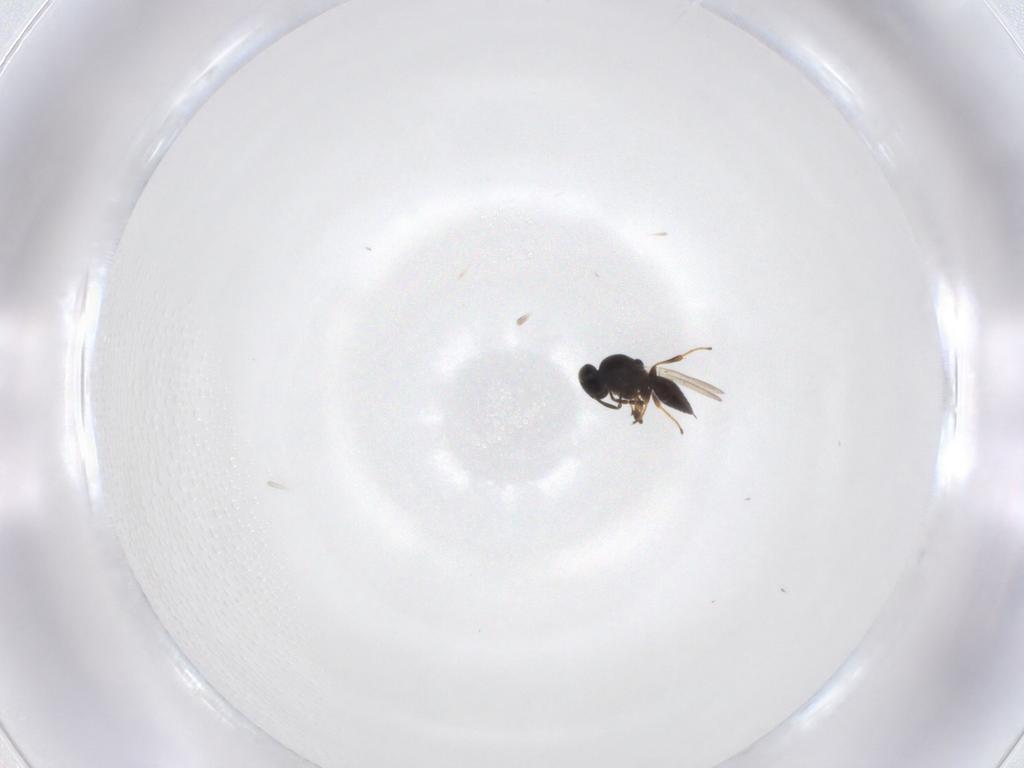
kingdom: Animalia
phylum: Arthropoda
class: Insecta
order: Hymenoptera
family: Platygastridae
